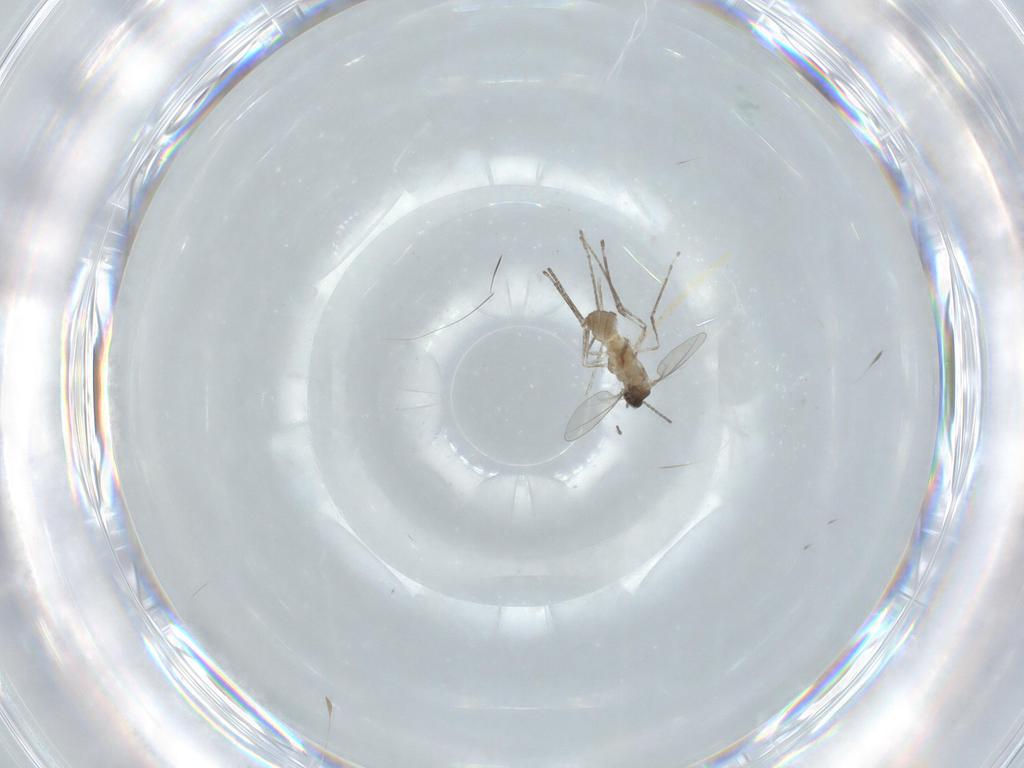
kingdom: Animalia
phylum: Arthropoda
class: Insecta
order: Diptera
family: Cecidomyiidae
